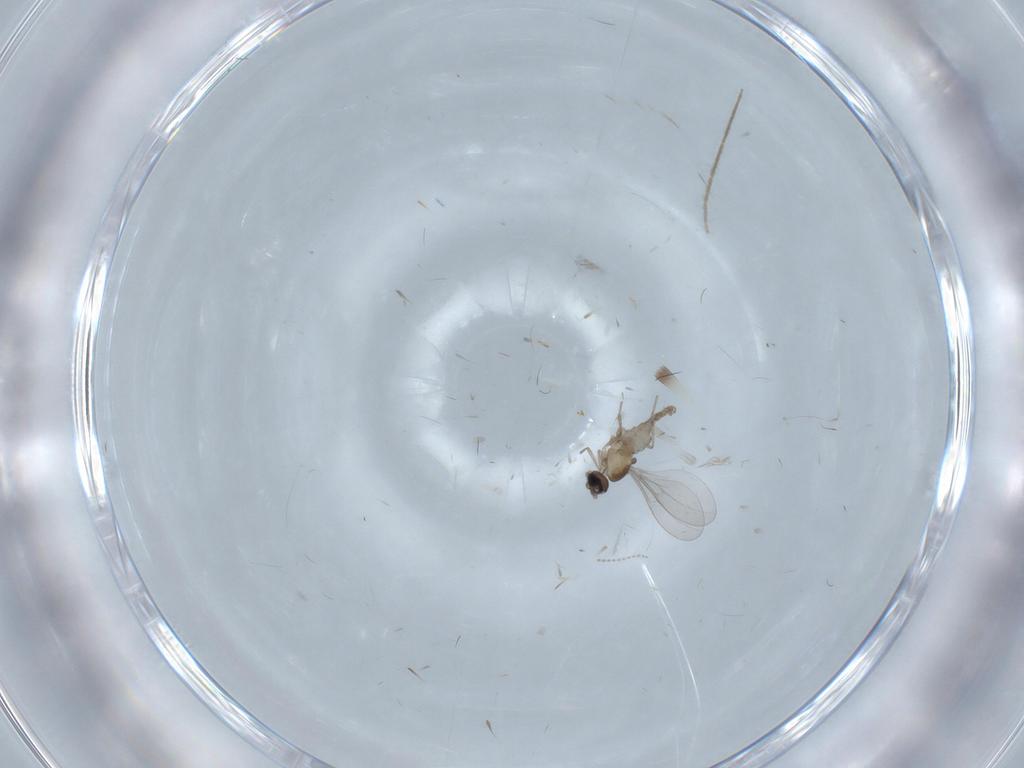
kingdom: Animalia
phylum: Arthropoda
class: Insecta
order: Diptera
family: Cecidomyiidae
